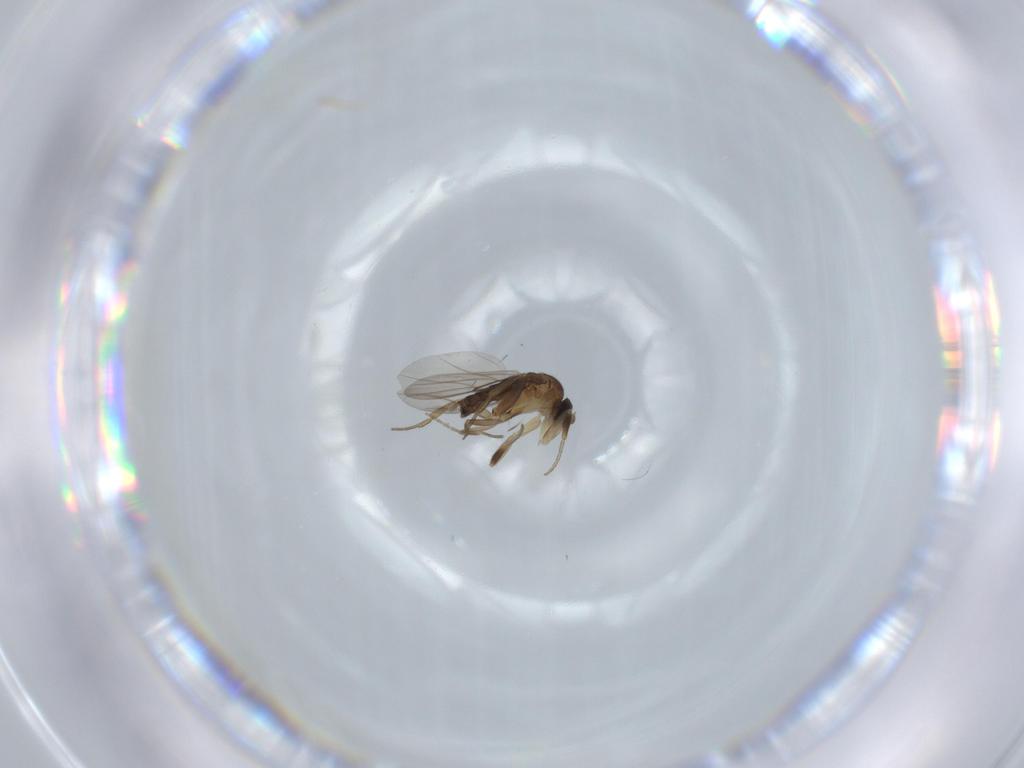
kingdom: Animalia
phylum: Arthropoda
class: Insecta
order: Diptera
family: Phoridae
